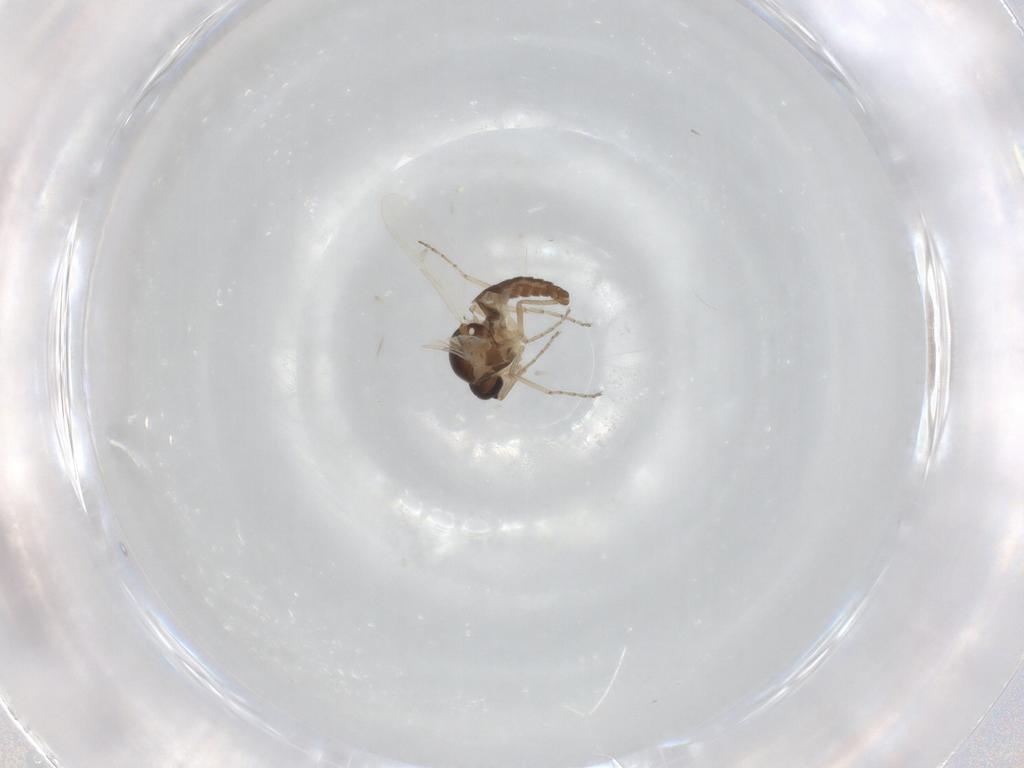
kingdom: Animalia
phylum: Arthropoda
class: Insecta
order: Diptera
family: Ceratopogonidae
